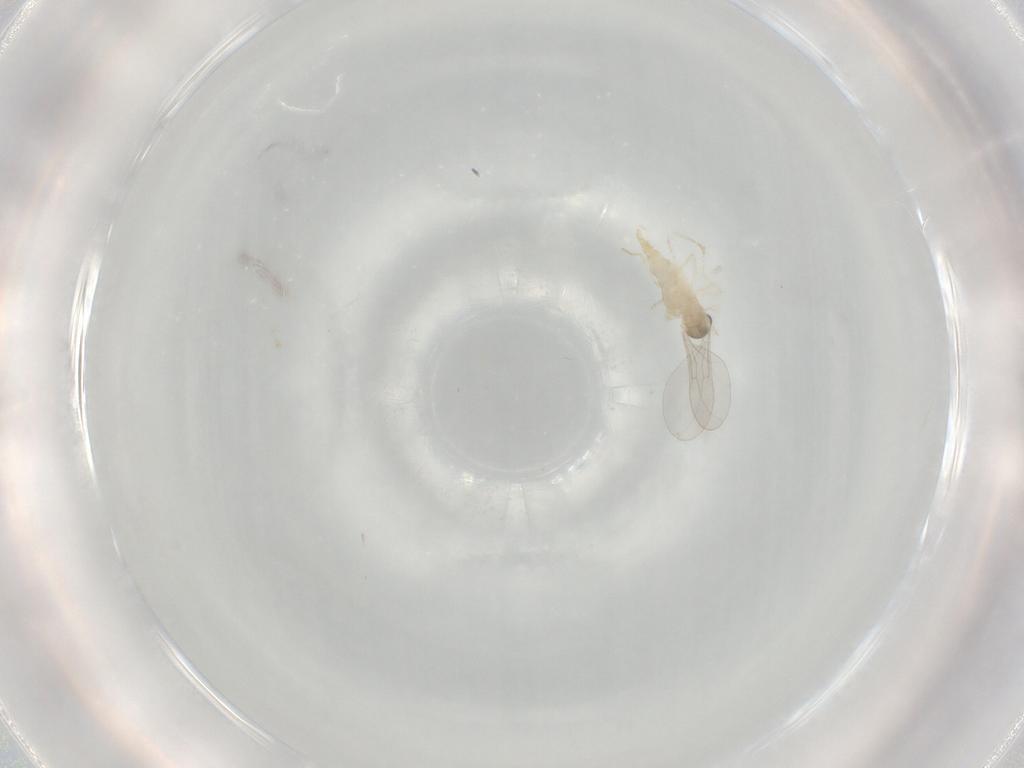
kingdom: Animalia
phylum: Arthropoda
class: Insecta
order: Diptera
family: Cecidomyiidae
